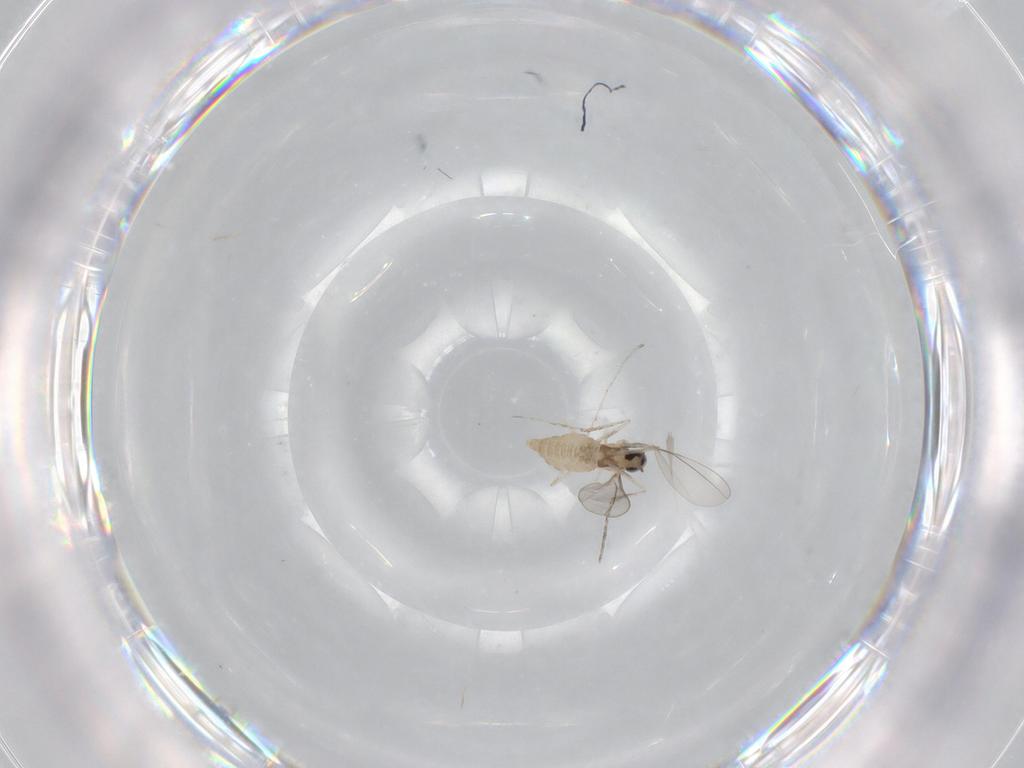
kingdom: Animalia
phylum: Arthropoda
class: Insecta
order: Diptera
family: Cecidomyiidae
